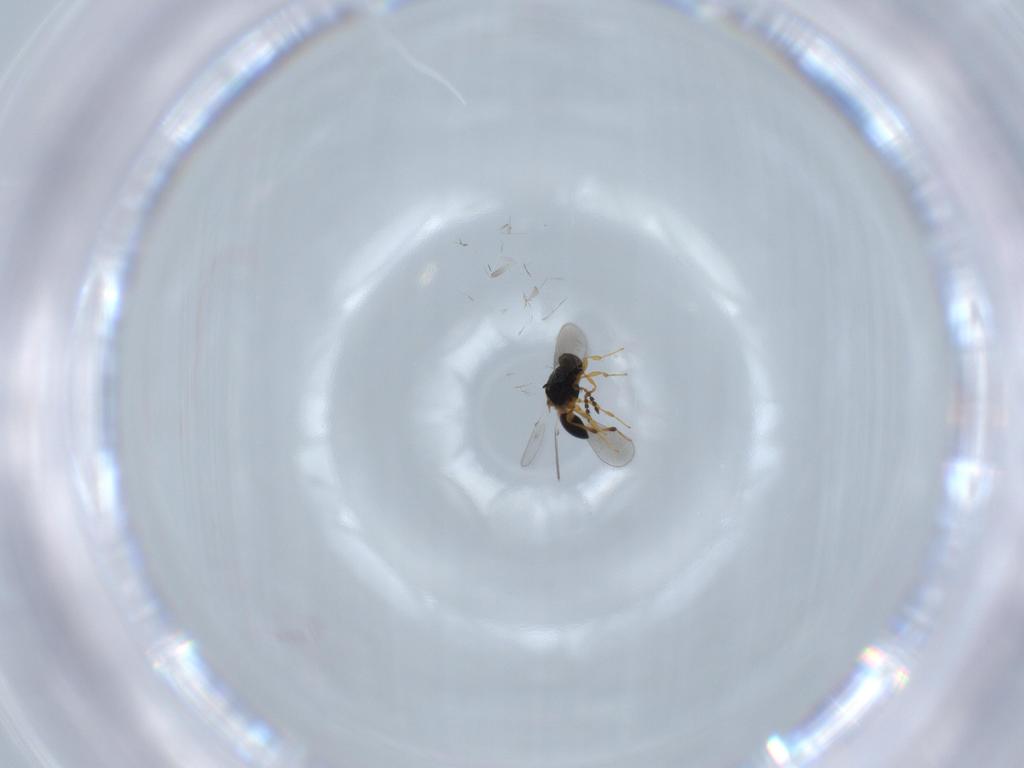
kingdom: Animalia
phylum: Arthropoda
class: Insecta
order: Hymenoptera
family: Platygastridae
